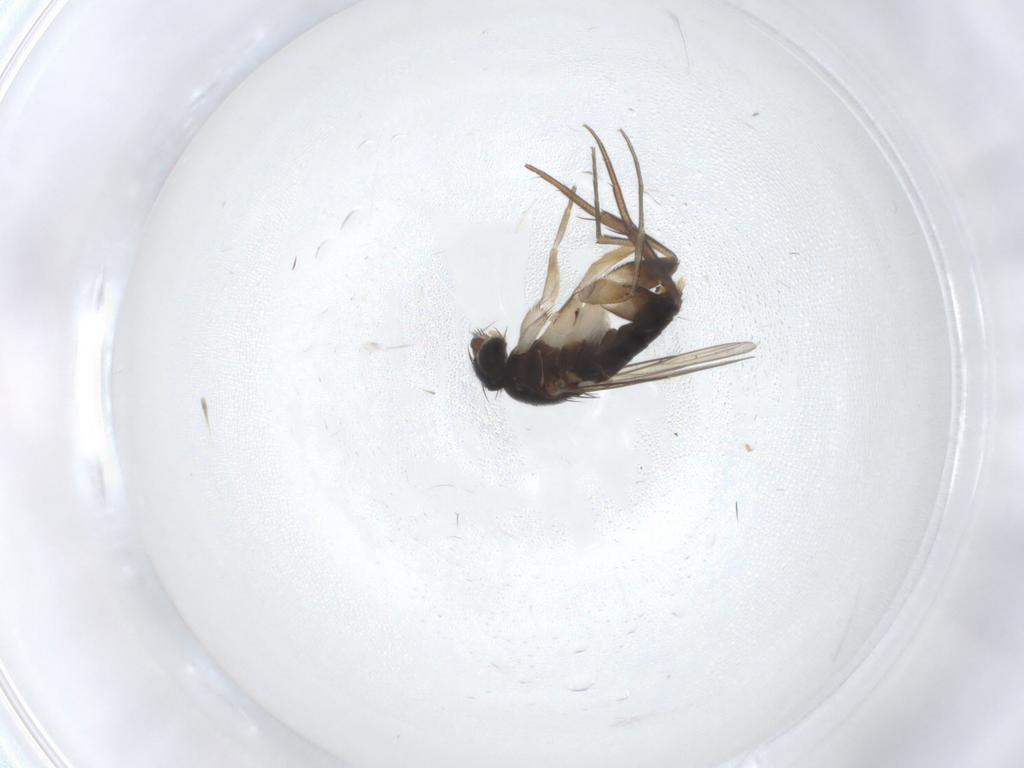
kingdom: Animalia
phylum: Arthropoda
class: Insecta
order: Diptera
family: Phoridae
